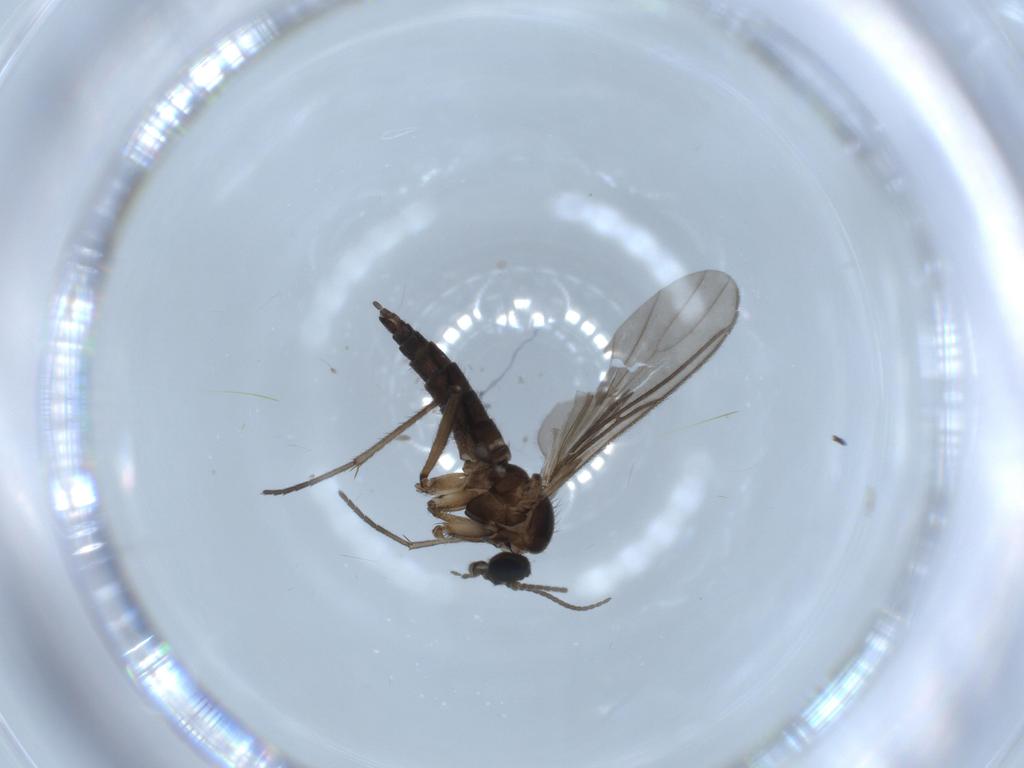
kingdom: Animalia
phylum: Arthropoda
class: Insecta
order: Diptera
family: Sciaridae
